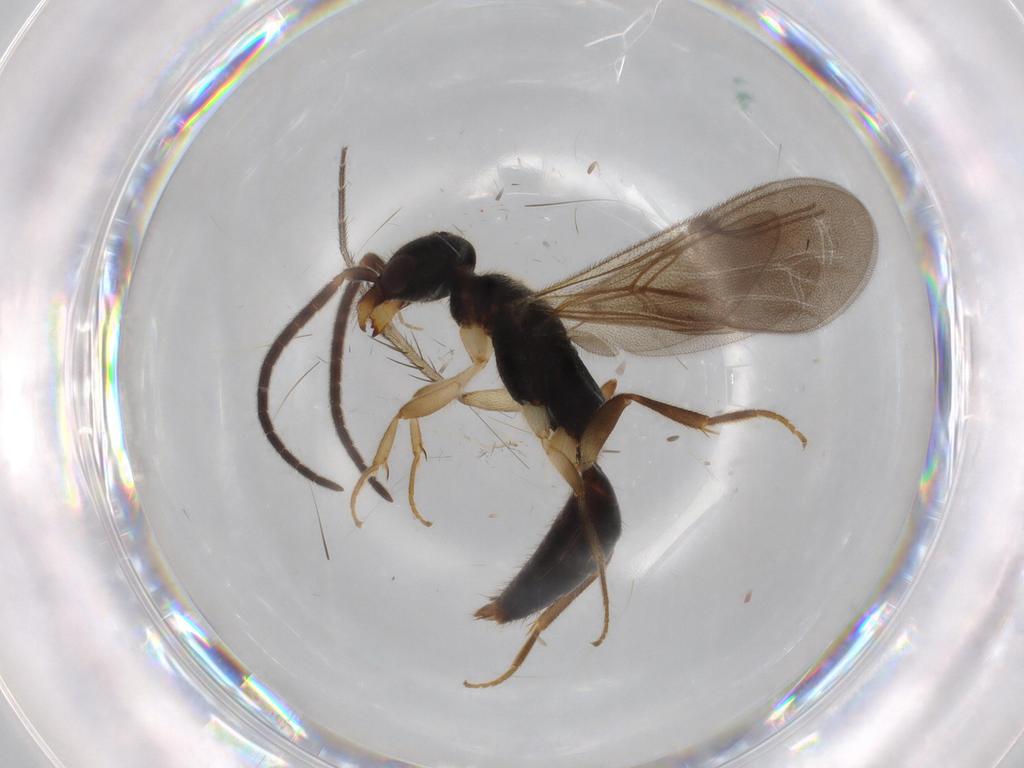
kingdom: Animalia
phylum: Arthropoda
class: Insecta
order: Hymenoptera
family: Bethylidae
